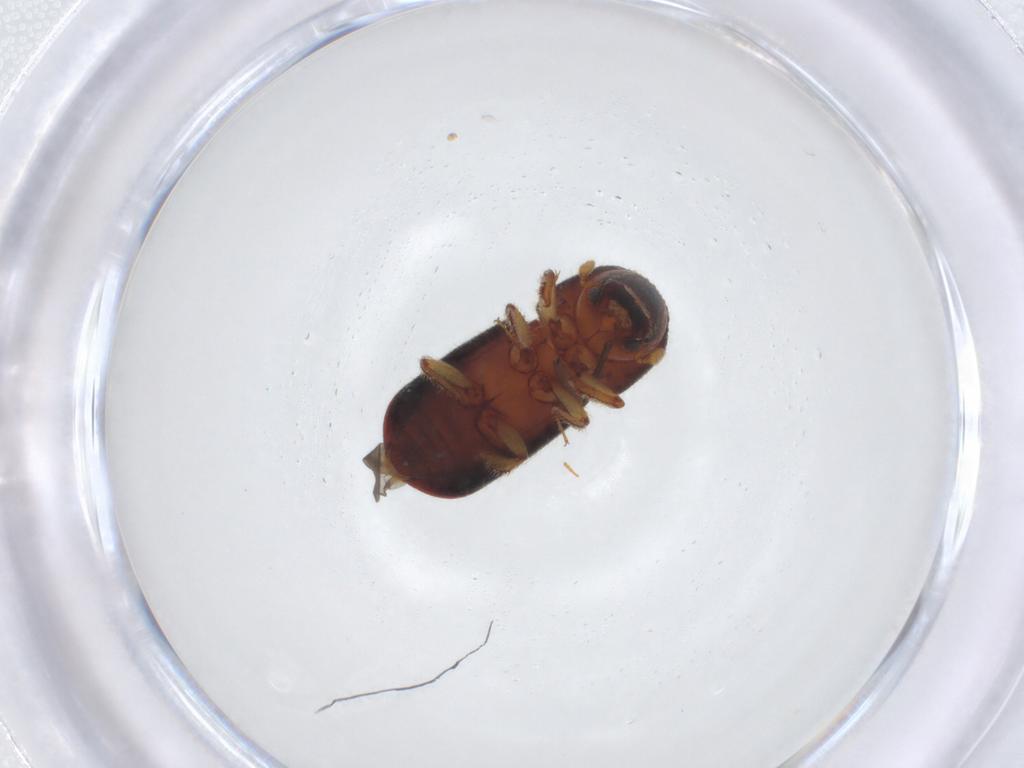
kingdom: Animalia
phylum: Arthropoda
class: Insecta
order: Coleoptera
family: Curculionidae
